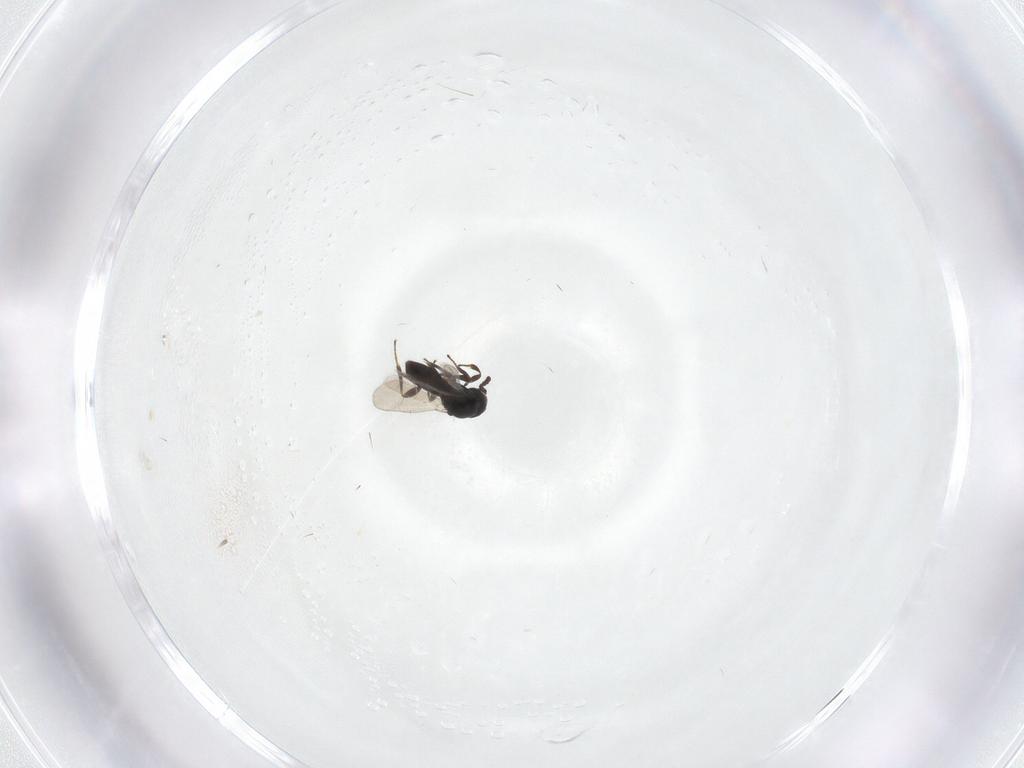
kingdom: Animalia
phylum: Arthropoda
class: Insecta
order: Hymenoptera
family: Platygastridae
